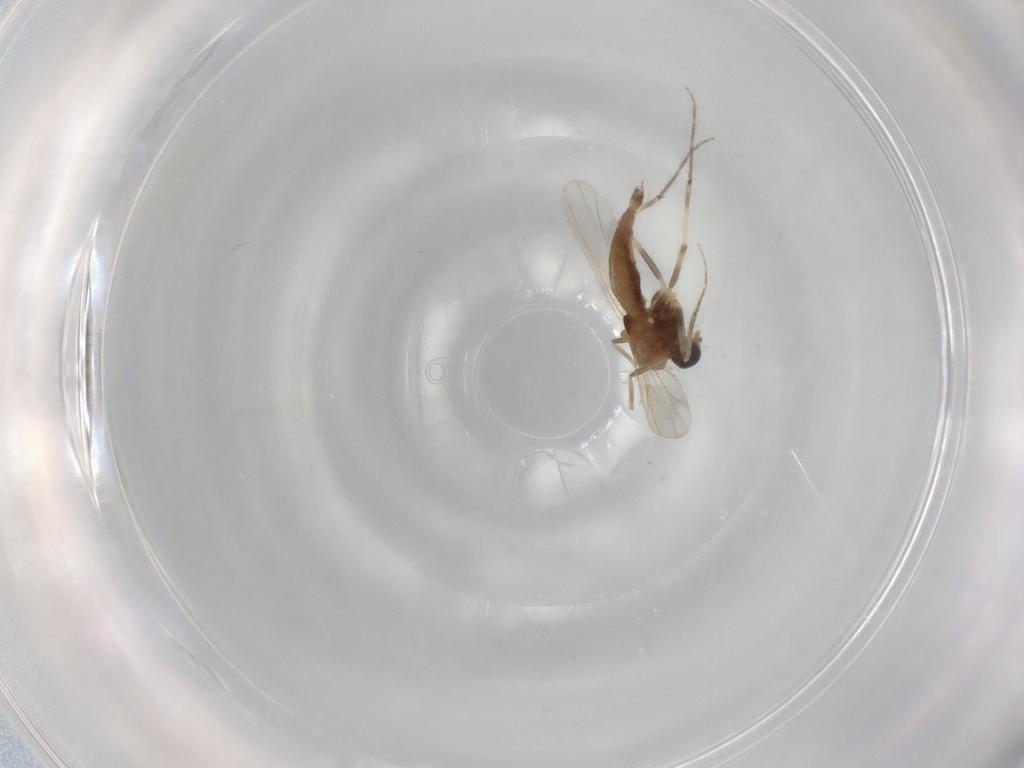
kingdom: Animalia
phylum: Arthropoda
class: Insecta
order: Diptera
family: Chironomidae
